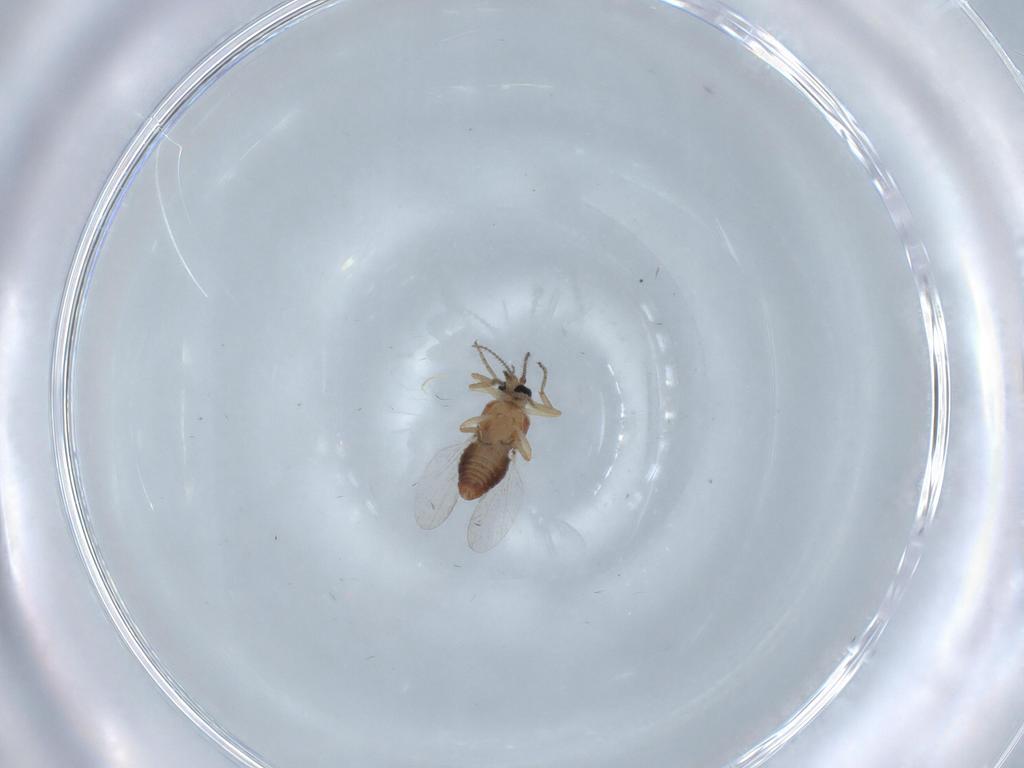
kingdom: Animalia
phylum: Arthropoda
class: Insecta
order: Diptera
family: Ceratopogonidae
